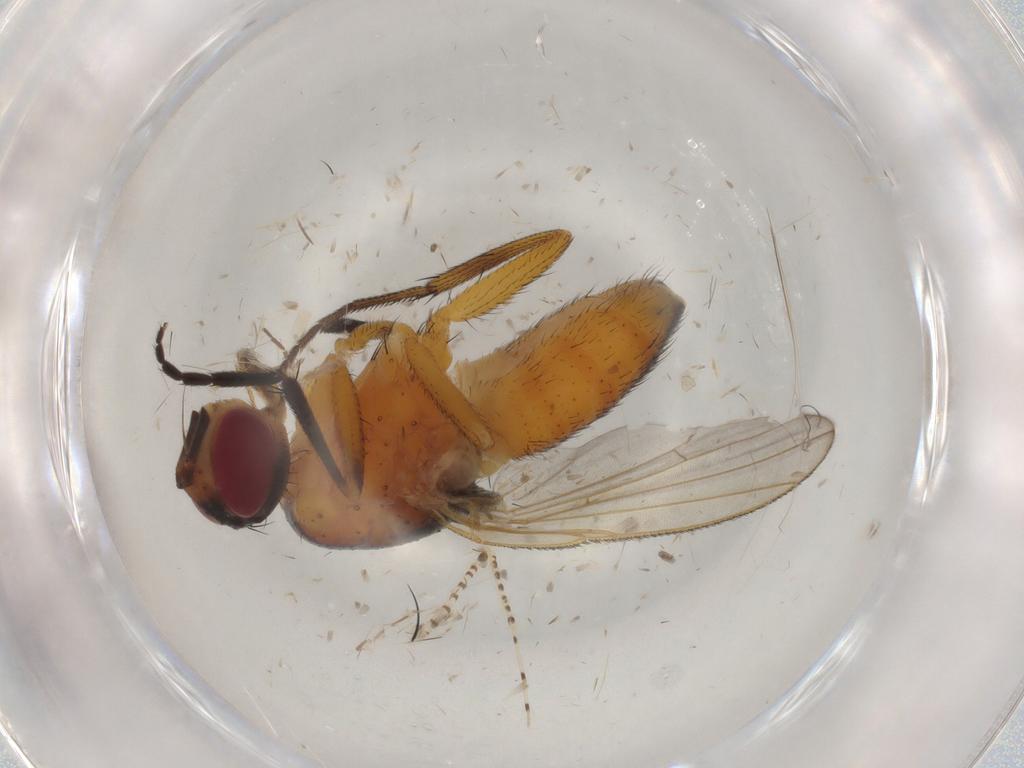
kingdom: Animalia
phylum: Arthropoda
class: Insecta
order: Diptera
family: Muscidae
